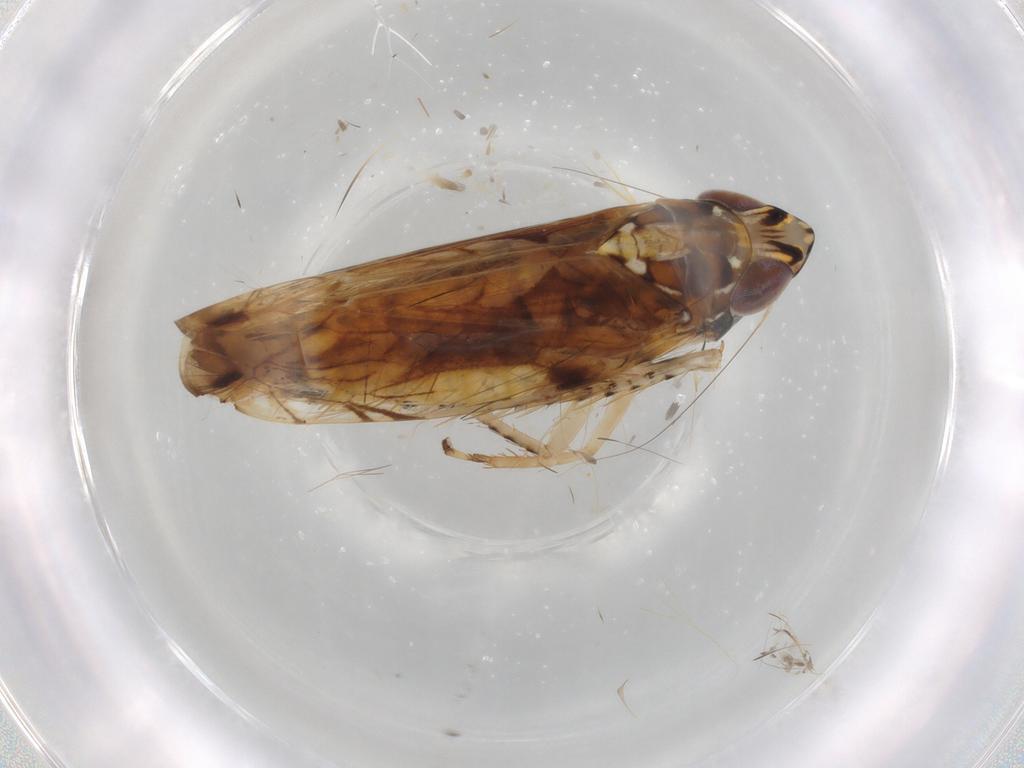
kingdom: Animalia
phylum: Arthropoda
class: Insecta
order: Hemiptera
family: Cicadellidae
